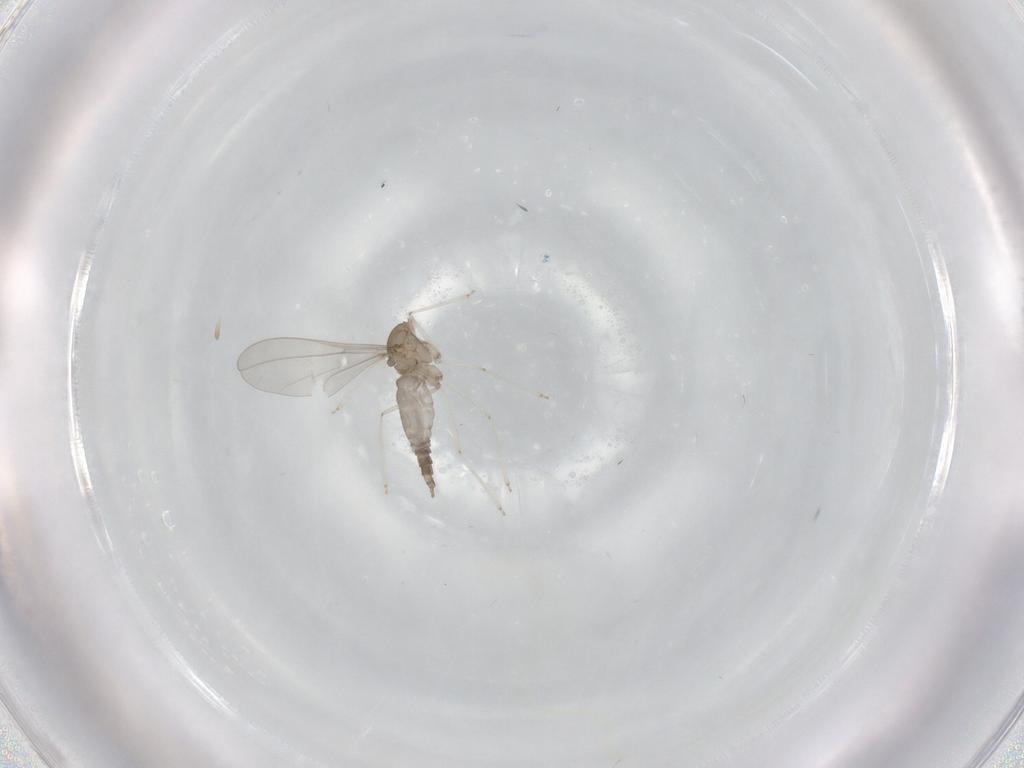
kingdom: Animalia
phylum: Arthropoda
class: Insecta
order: Diptera
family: Cecidomyiidae
